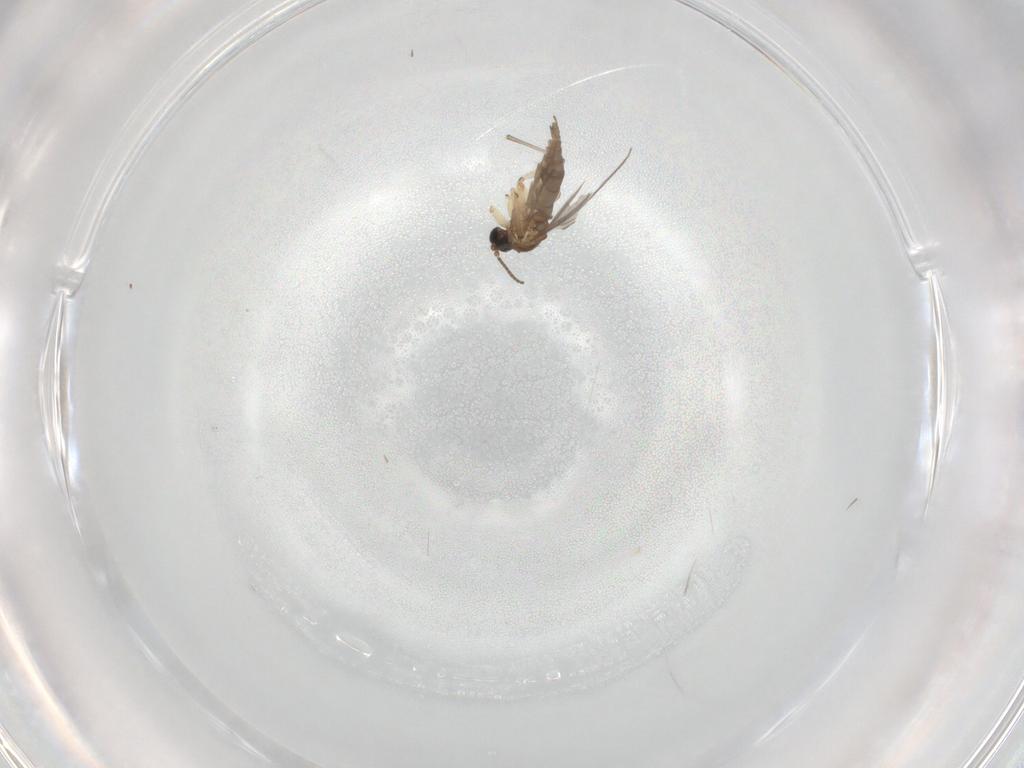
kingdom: Animalia
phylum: Arthropoda
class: Insecta
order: Diptera
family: Sciaridae
